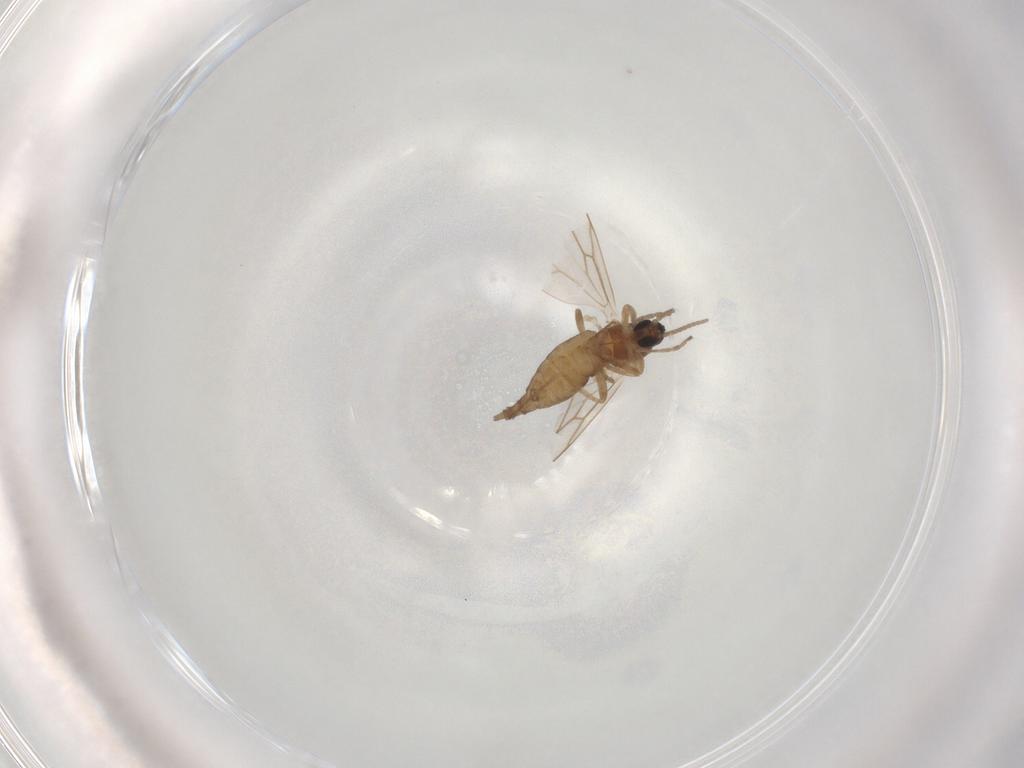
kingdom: Animalia
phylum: Arthropoda
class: Insecta
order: Diptera
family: Cecidomyiidae
